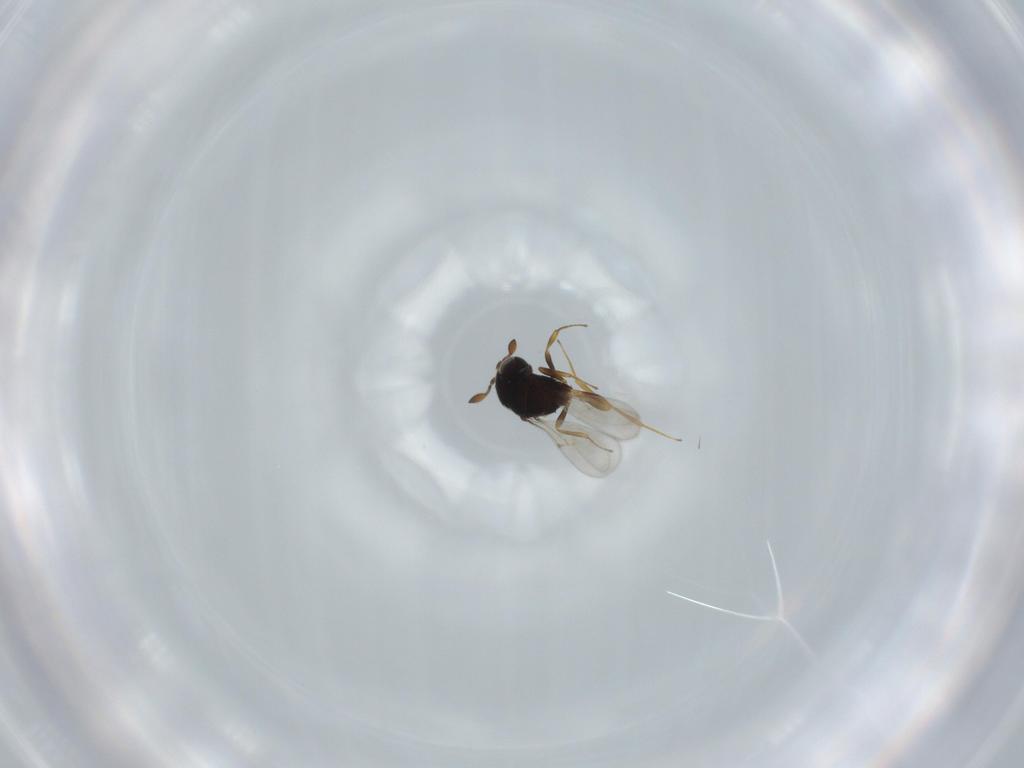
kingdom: Animalia
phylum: Arthropoda
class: Insecta
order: Hymenoptera
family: Scelionidae
